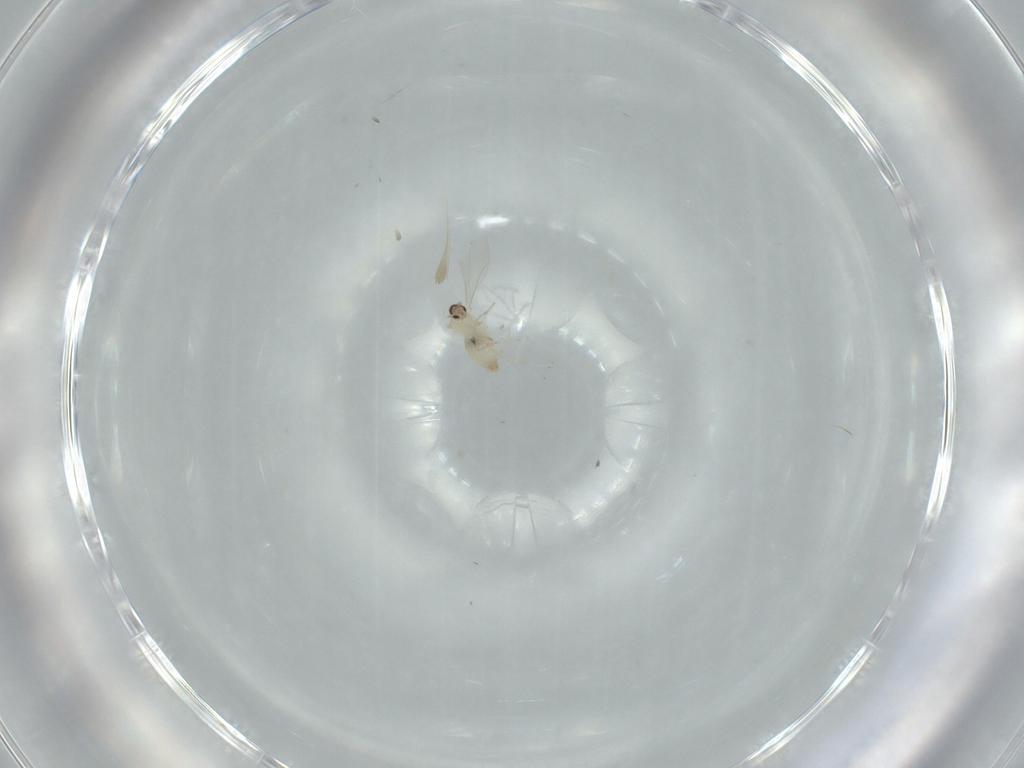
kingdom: Animalia
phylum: Arthropoda
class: Insecta
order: Diptera
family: Cecidomyiidae
